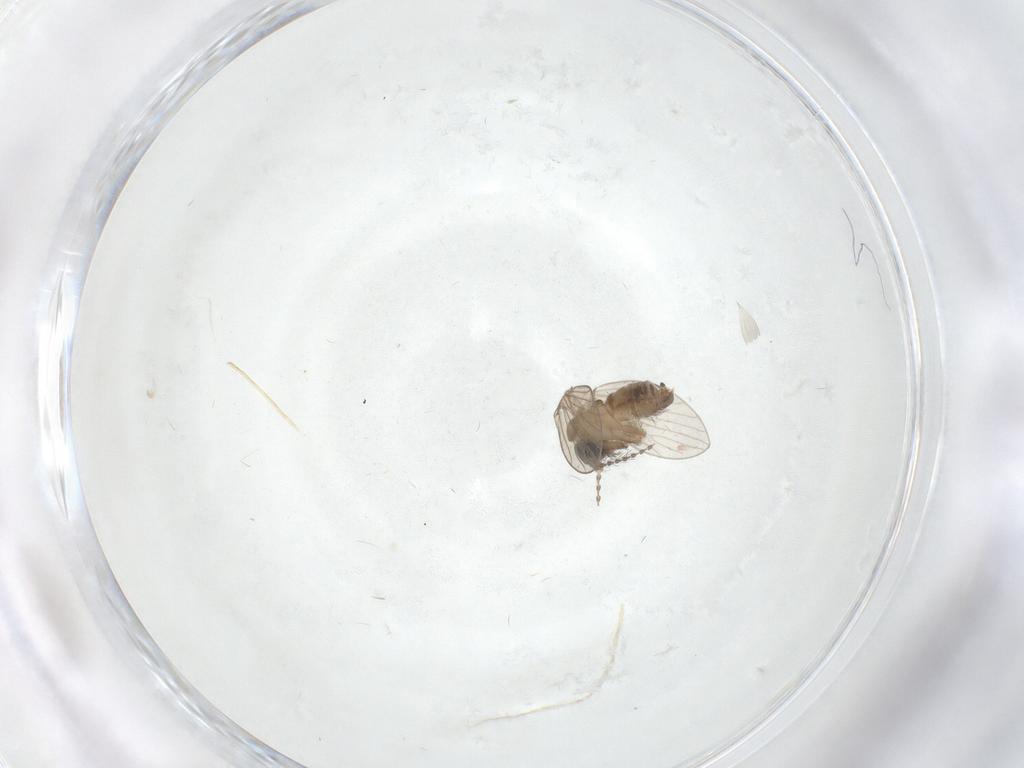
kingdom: Animalia
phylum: Arthropoda
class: Insecta
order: Diptera
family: Psychodidae
